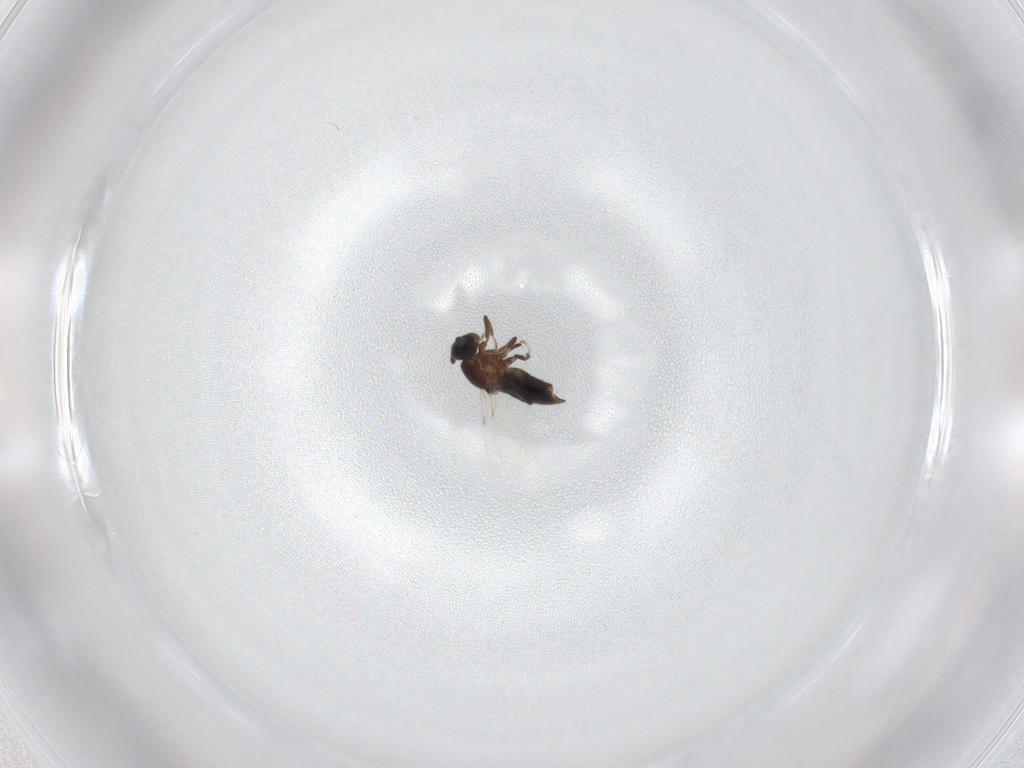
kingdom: Animalia
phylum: Arthropoda
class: Insecta
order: Diptera
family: Scatopsidae
